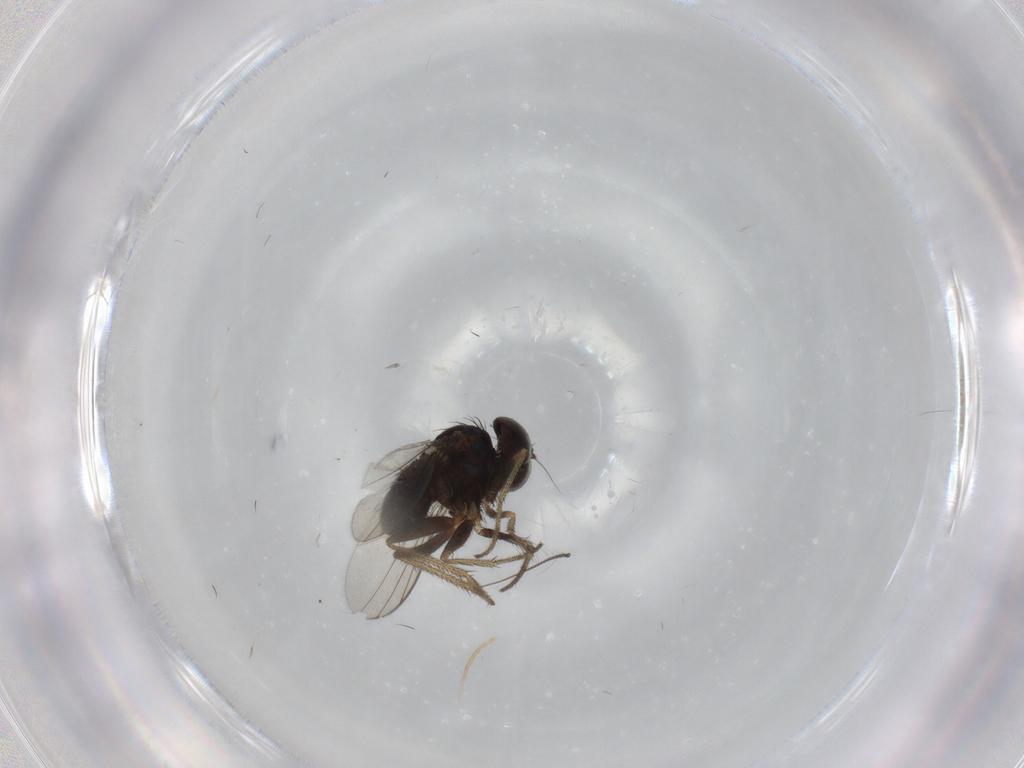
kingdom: Animalia
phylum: Arthropoda
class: Insecta
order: Diptera
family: Chironomidae
